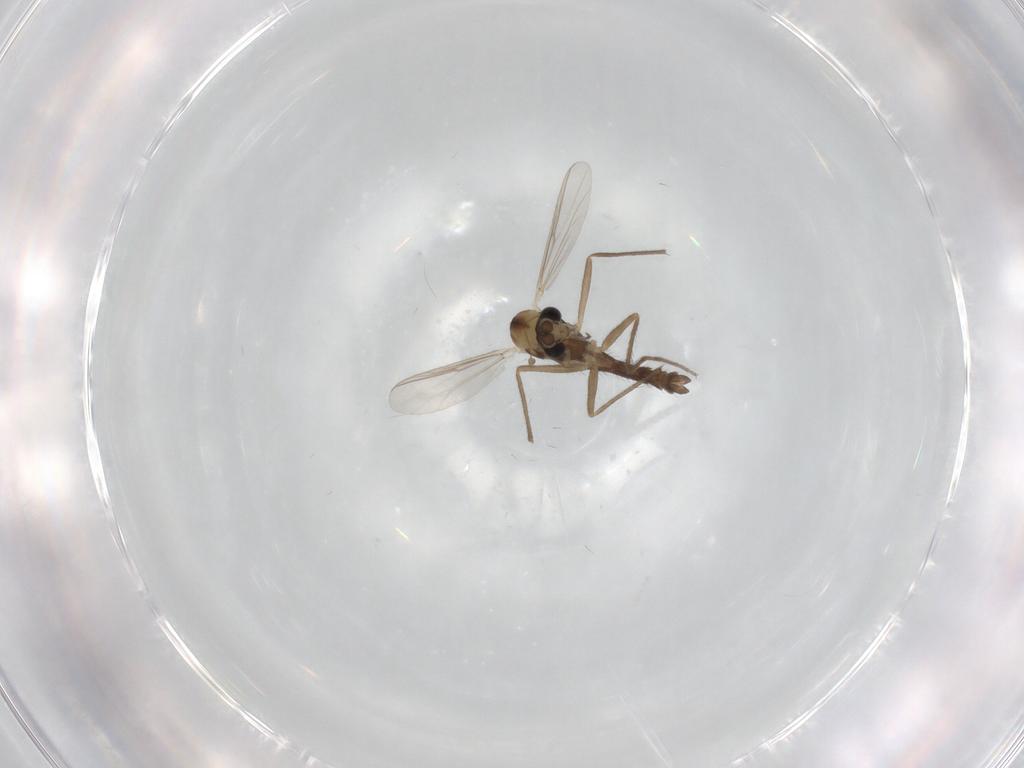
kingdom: Animalia
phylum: Arthropoda
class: Insecta
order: Diptera
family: Chironomidae
